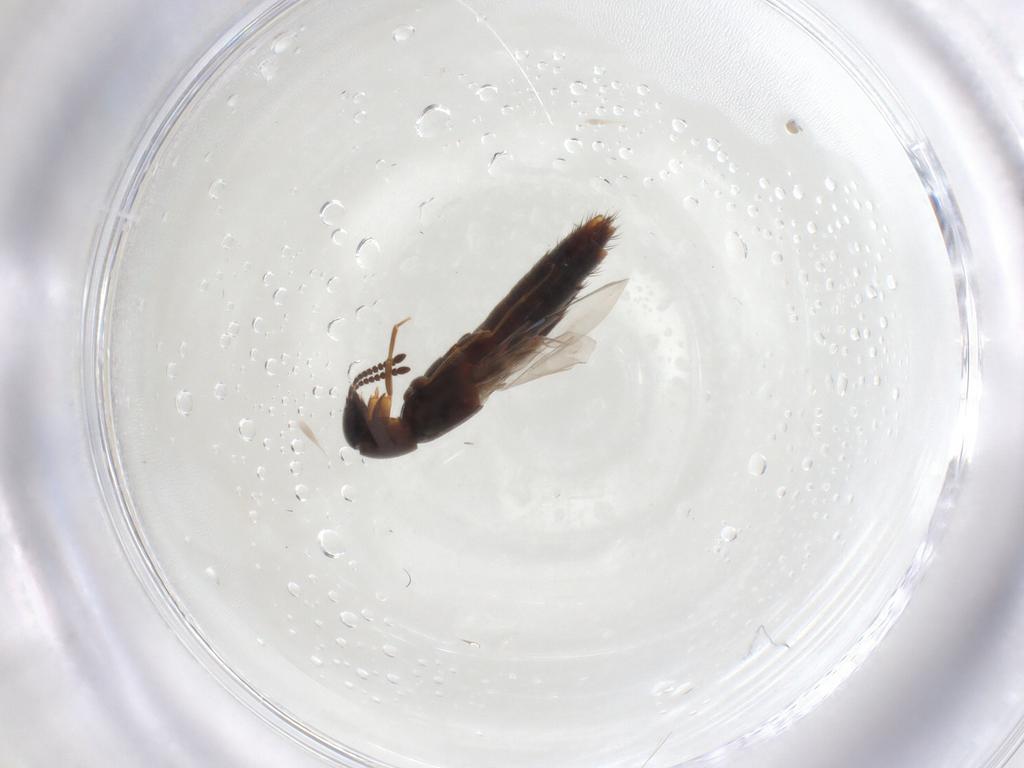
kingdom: Animalia
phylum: Arthropoda
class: Insecta
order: Coleoptera
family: Staphylinidae
